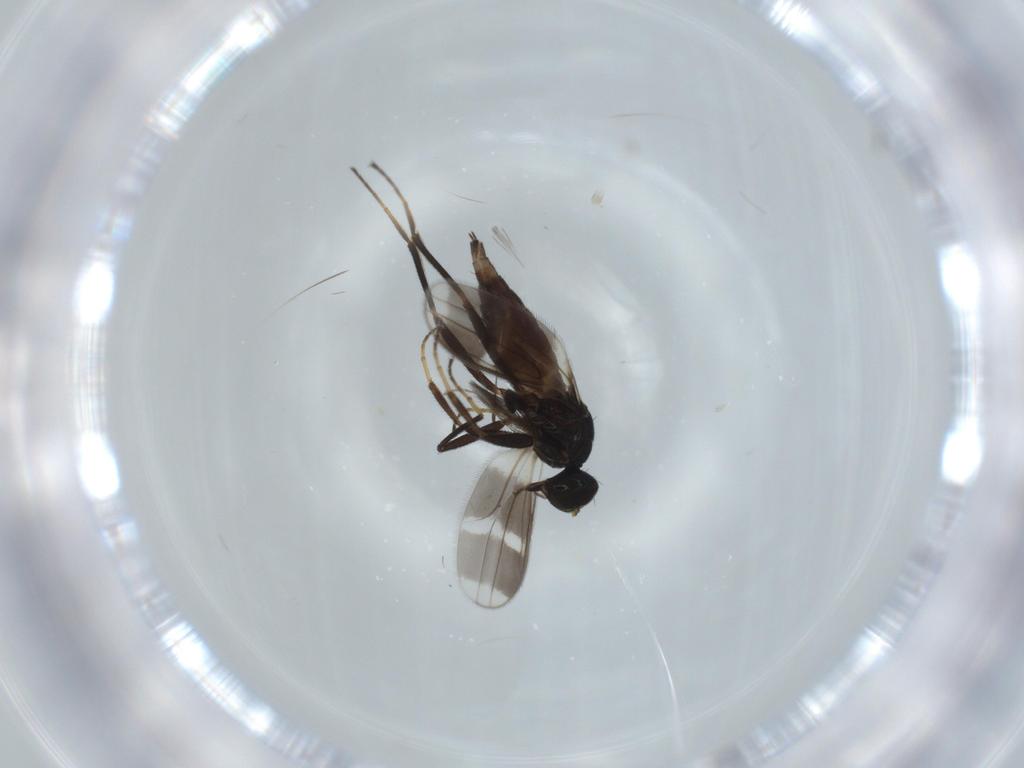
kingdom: Animalia
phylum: Arthropoda
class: Insecta
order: Diptera
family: Hybotidae
